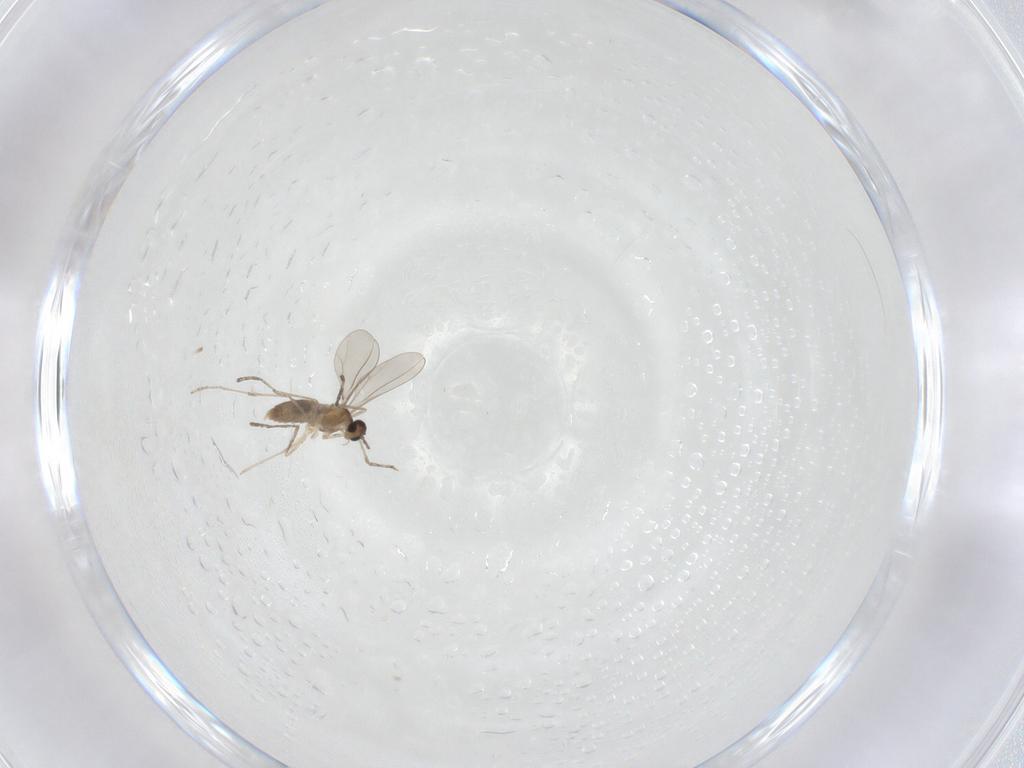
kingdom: Animalia
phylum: Arthropoda
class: Insecta
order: Diptera
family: Chironomidae
